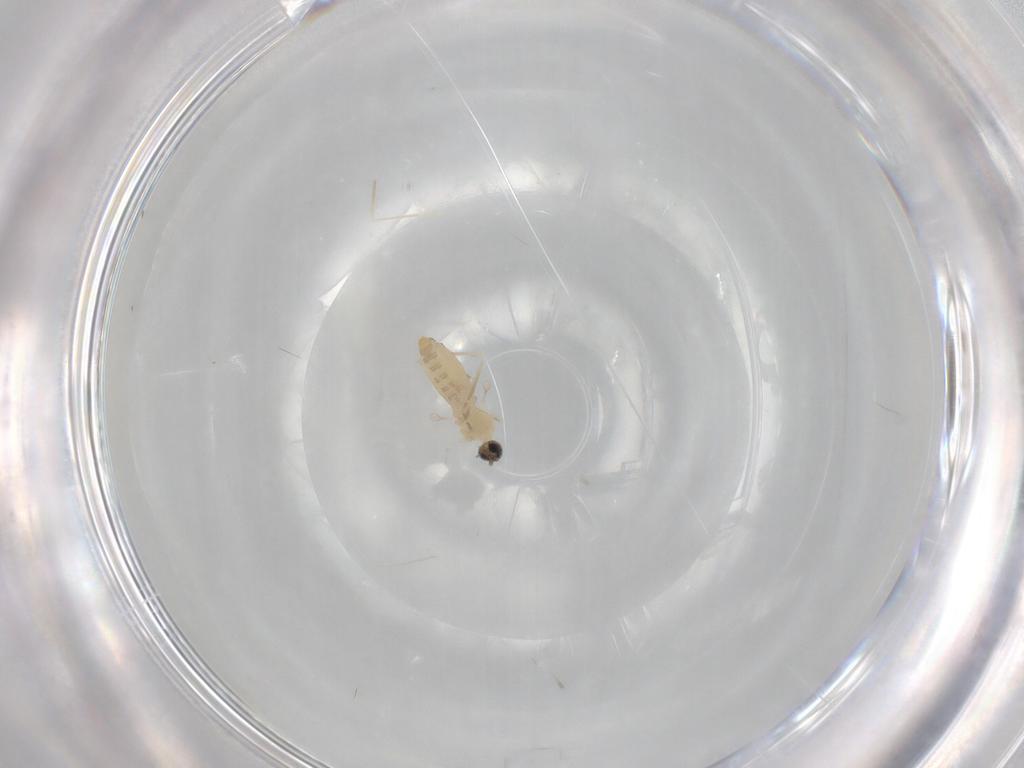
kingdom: Animalia
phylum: Arthropoda
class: Insecta
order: Diptera
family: Cecidomyiidae
